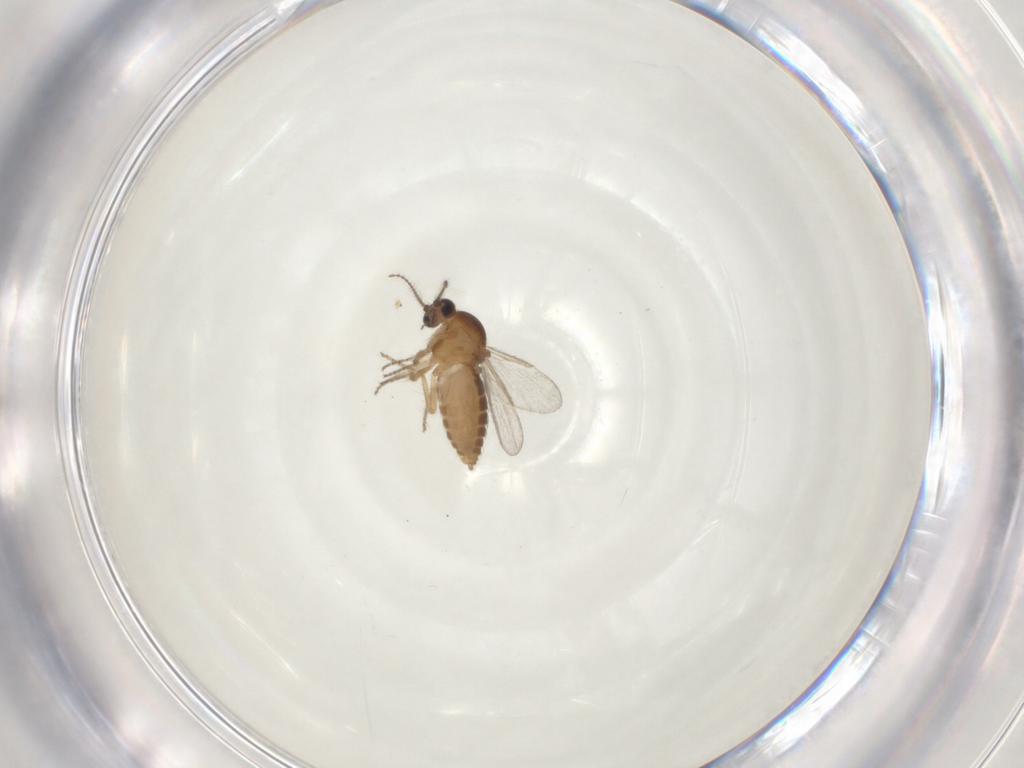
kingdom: Animalia
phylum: Arthropoda
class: Insecta
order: Diptera
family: Ceratopogonidae
